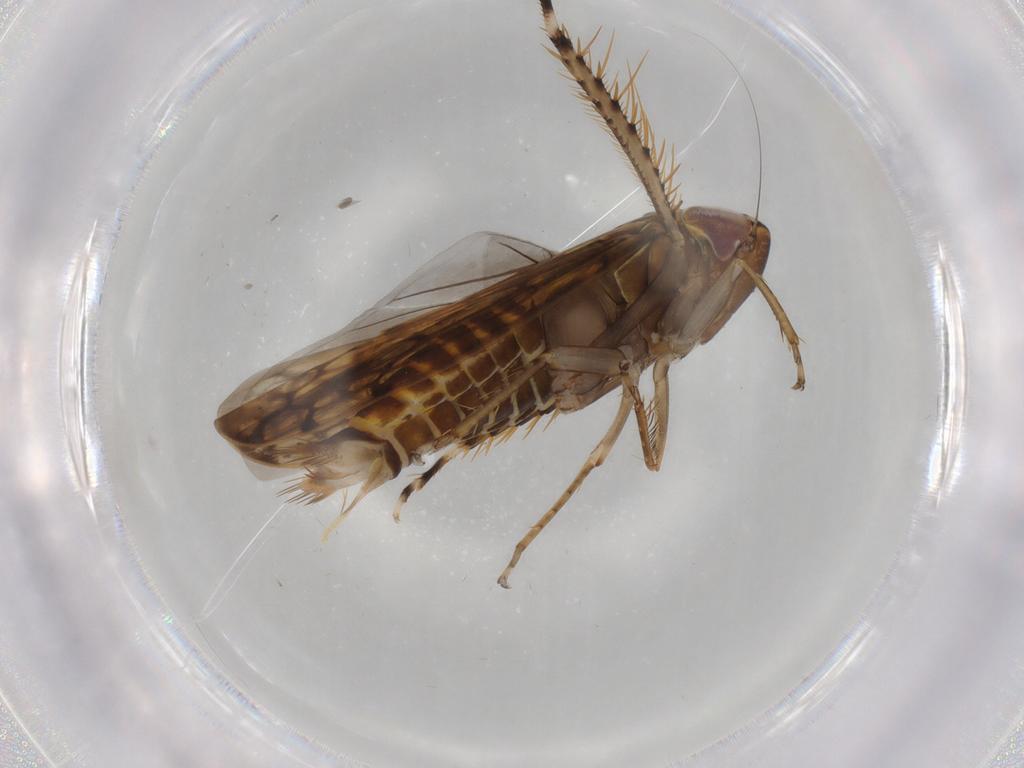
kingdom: Animalia
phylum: Arthropoda
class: Insecta
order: Hemiptera
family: Cicadellidae
